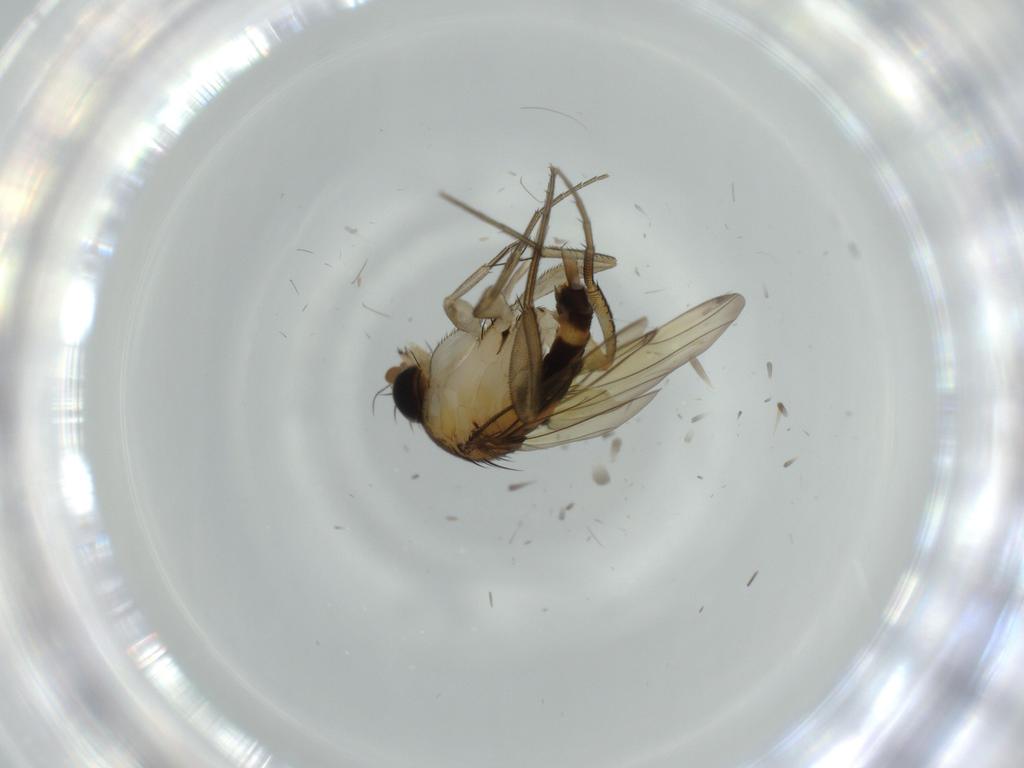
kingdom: Animalia
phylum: Arthropoda
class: Insecta
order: Diptera
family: Phoridae
